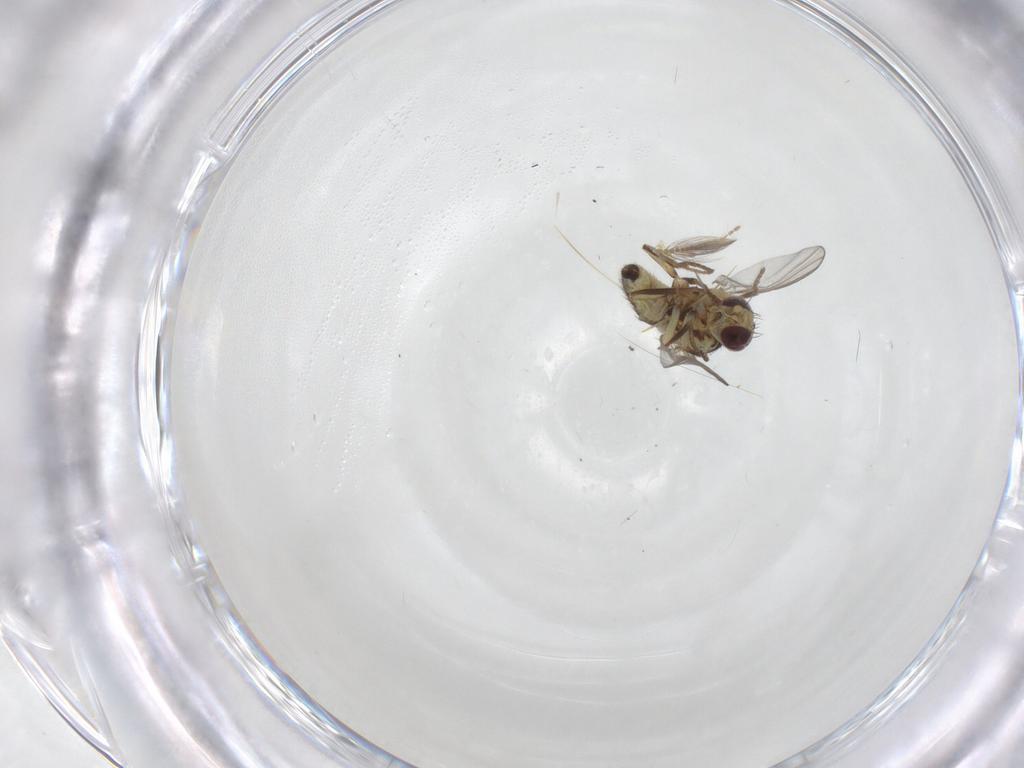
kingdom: Animalia
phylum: Arthropoda
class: Insecta
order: Diptera
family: Agromyzidae
